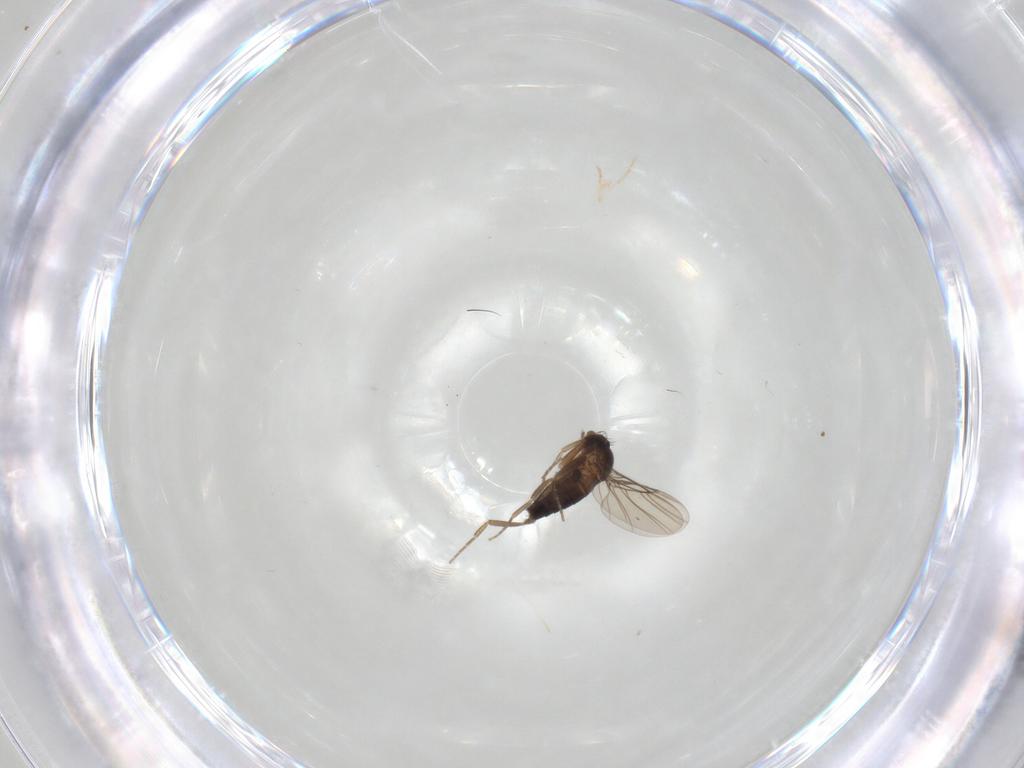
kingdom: Animalia
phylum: Arthropoda
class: Insecta
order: Diptera
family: Phoridae
